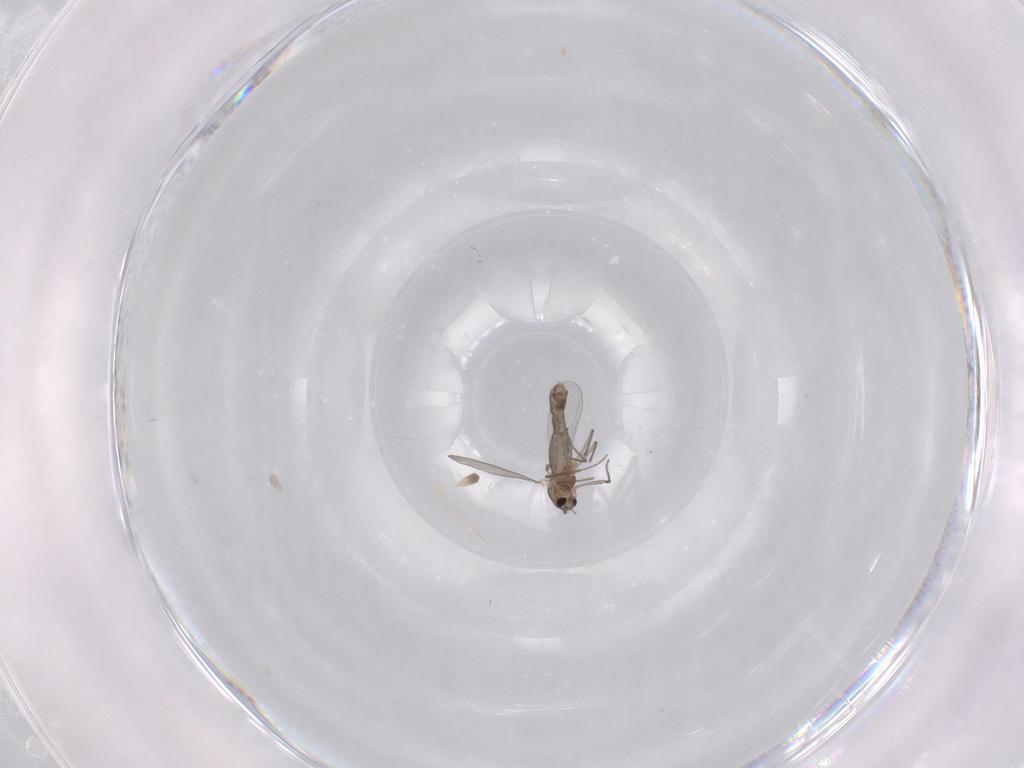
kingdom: Animalia
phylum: Arthropoda
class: Insecta
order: Diptera
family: Chironomidae
